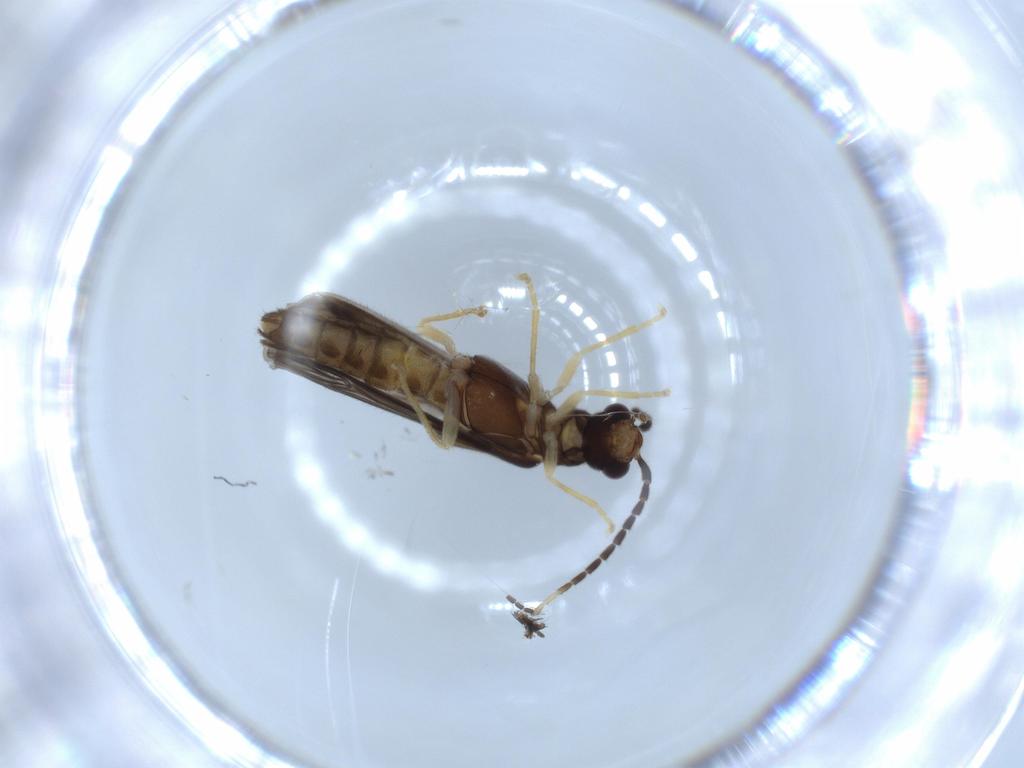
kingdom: Animalia
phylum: Arthropoda
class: Insecta
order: Coleoptera
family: Cantharidae
